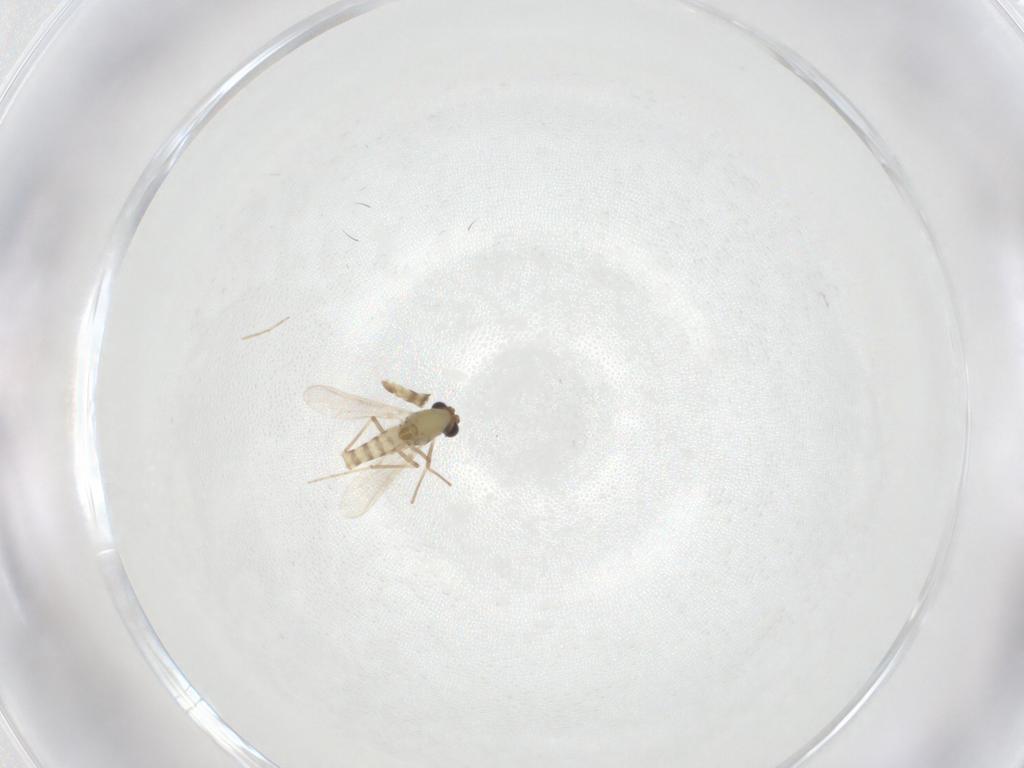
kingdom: Animalia
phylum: Arthropoda
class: Insecta
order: Diptera
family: Chironomidae
